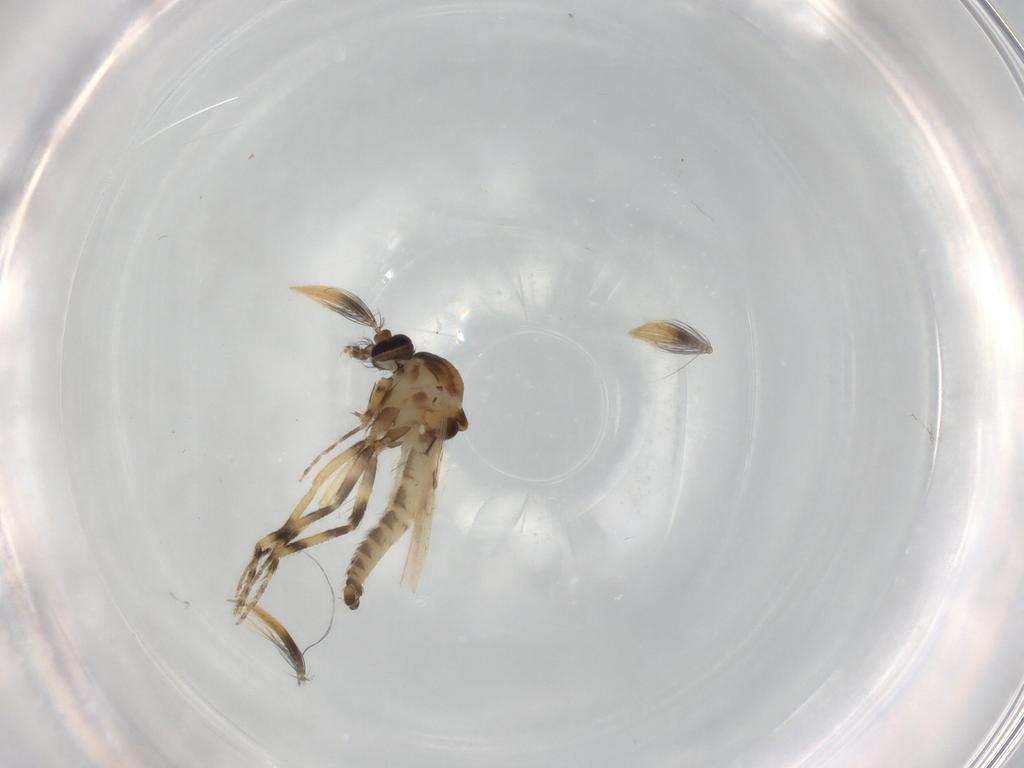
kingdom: Animalia
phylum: Arthropoda
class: Insecta
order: Diptera
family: Ceratopogonidae
